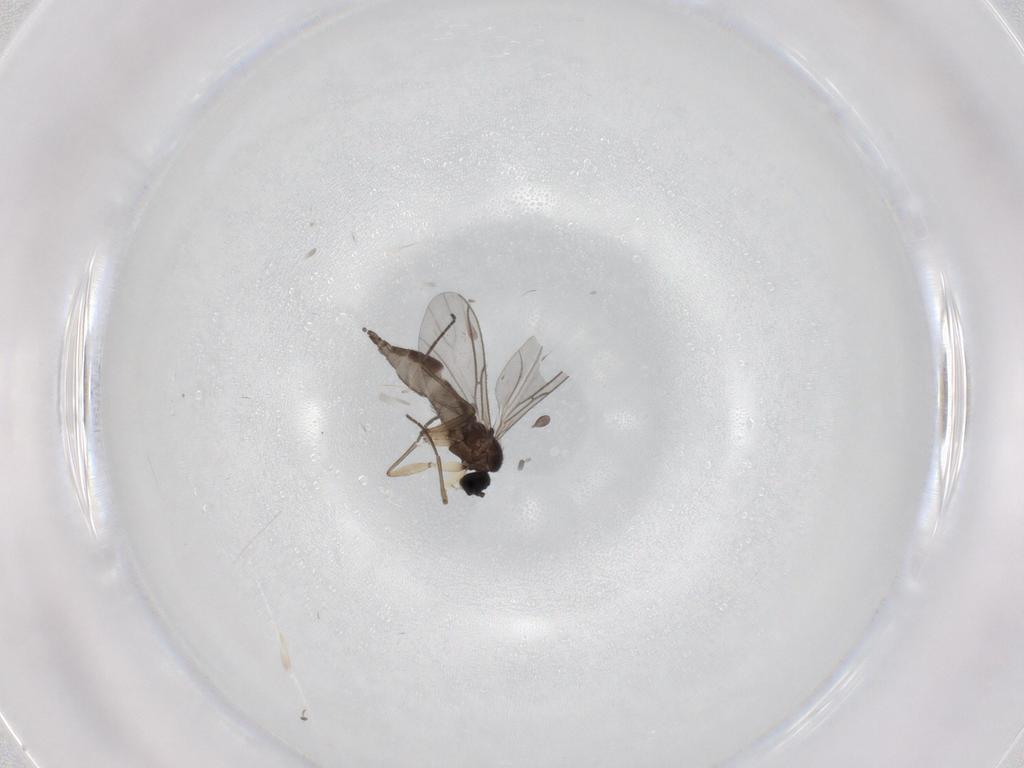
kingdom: Animalia
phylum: Arthropoda
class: Insecta
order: Diptera
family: Sciaridae
